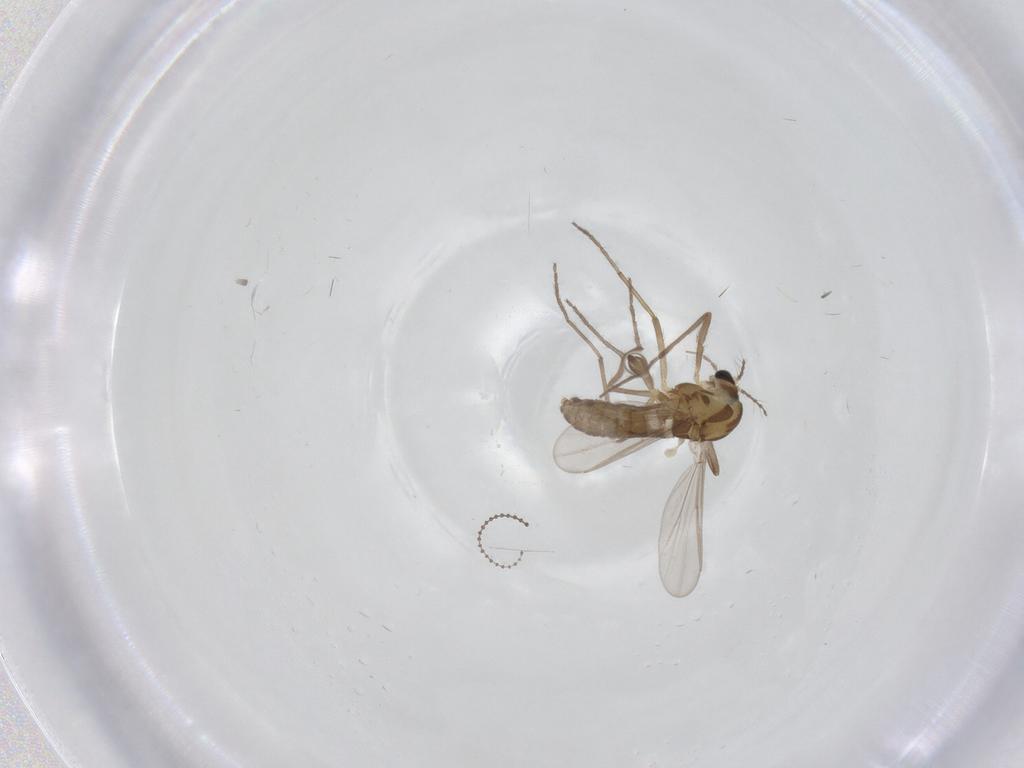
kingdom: Animalia
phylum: Arthropoda
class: Insecta
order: Diptera
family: Chironomidae
